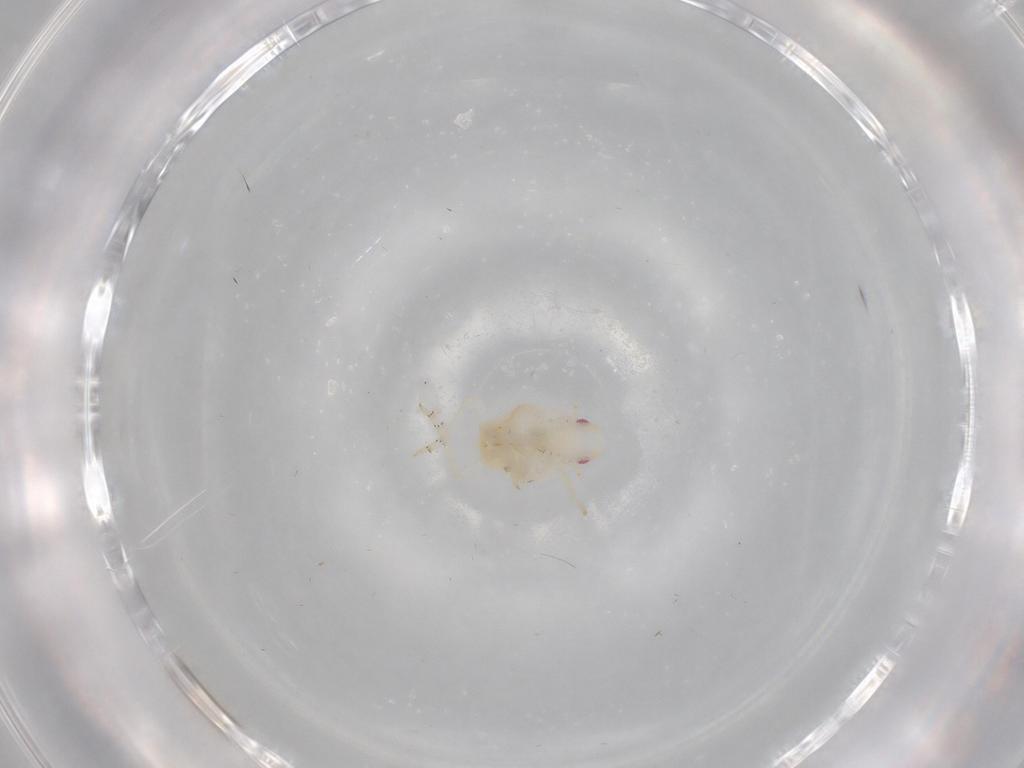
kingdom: Animalia
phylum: Arthropoda
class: Insecta
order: Hemiptera
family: Flatidae
